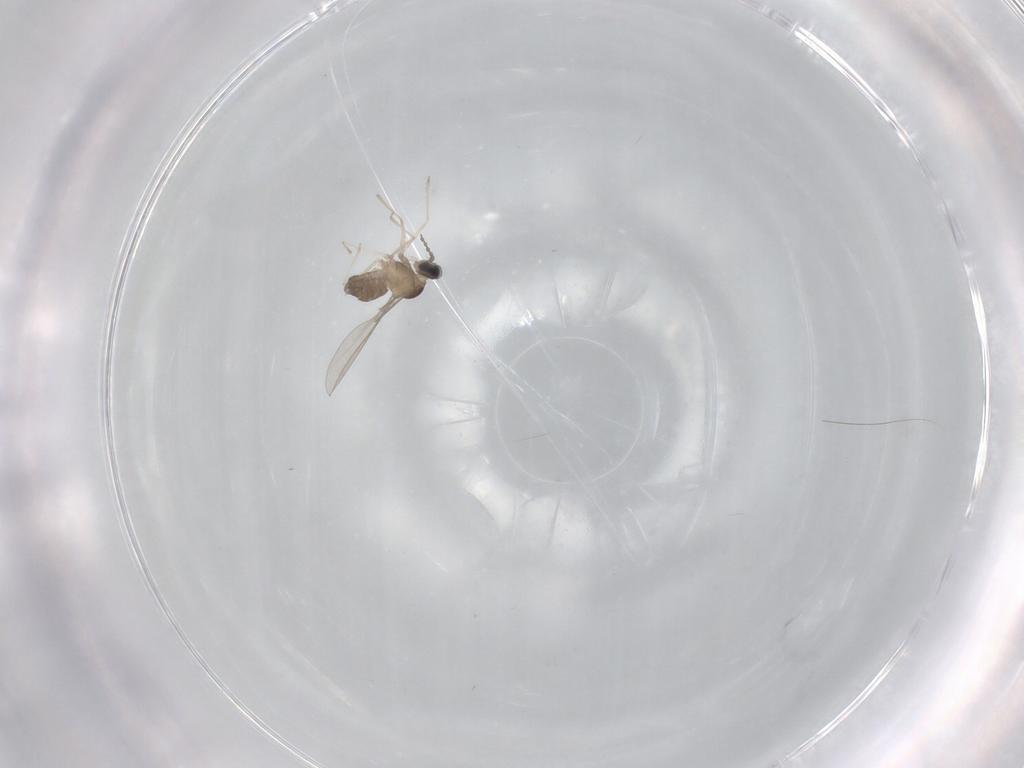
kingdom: Animalia
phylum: Arthropoda
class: Insecta
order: Diptera
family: Cecidomyiidae
